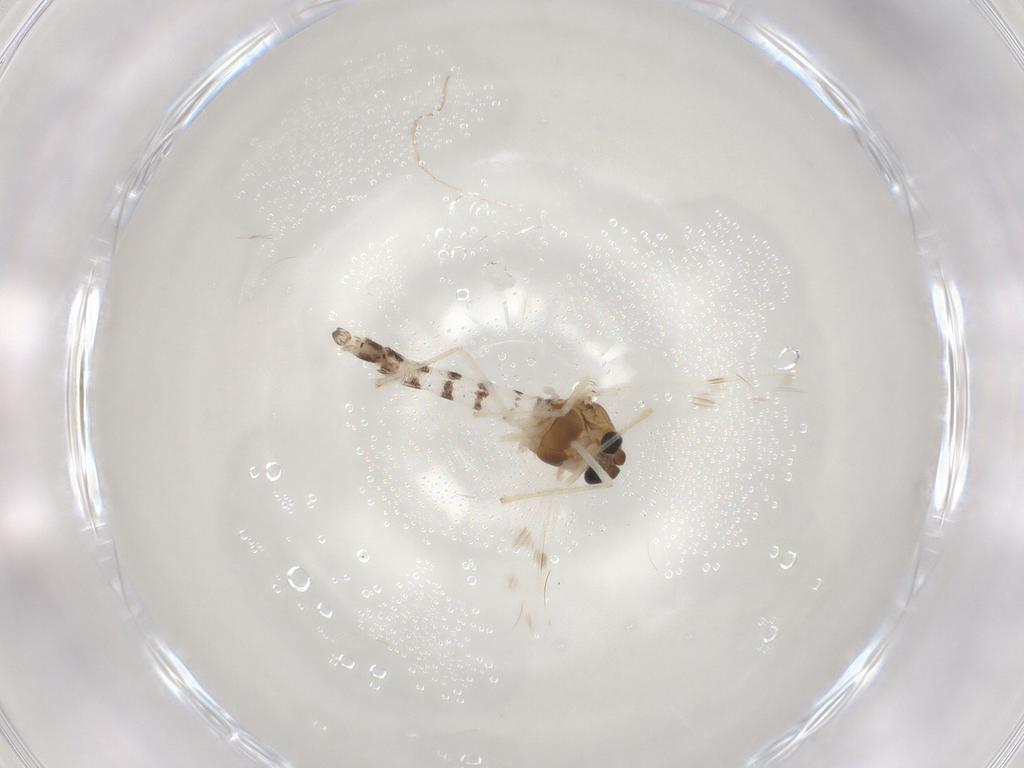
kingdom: Animalia
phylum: Arthropoda
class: Insecta
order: Diptera
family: Chironomidae
